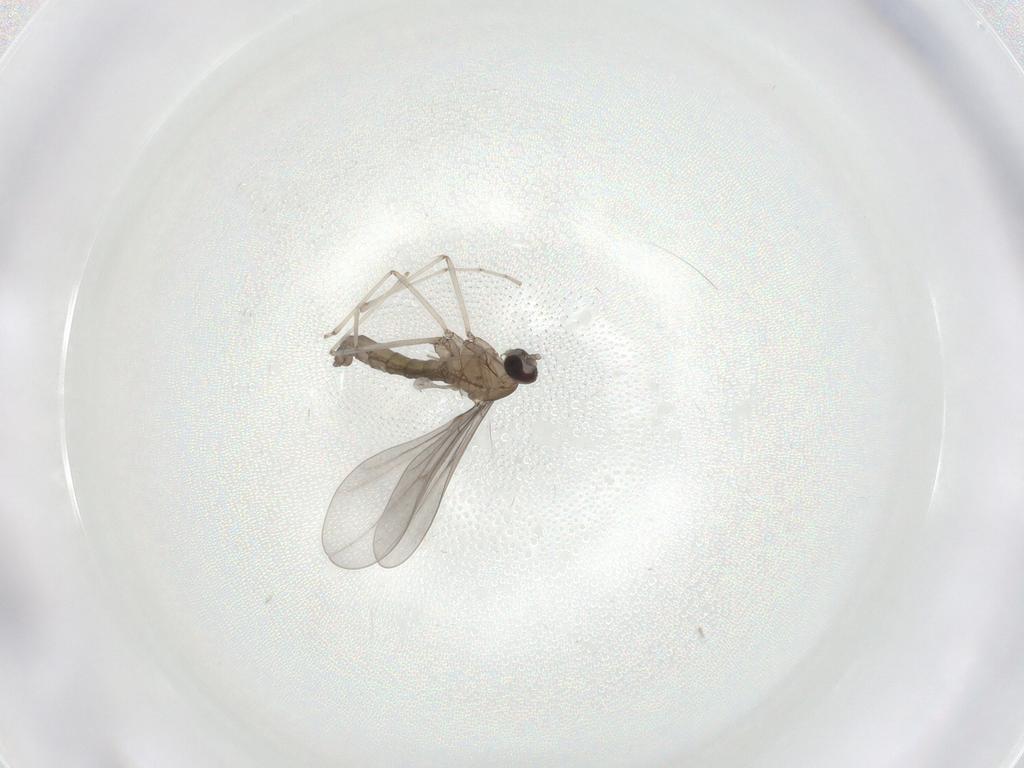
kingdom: Animalia
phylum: Arthropoda
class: Insecta
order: Diptera
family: Cecidomyiidae
